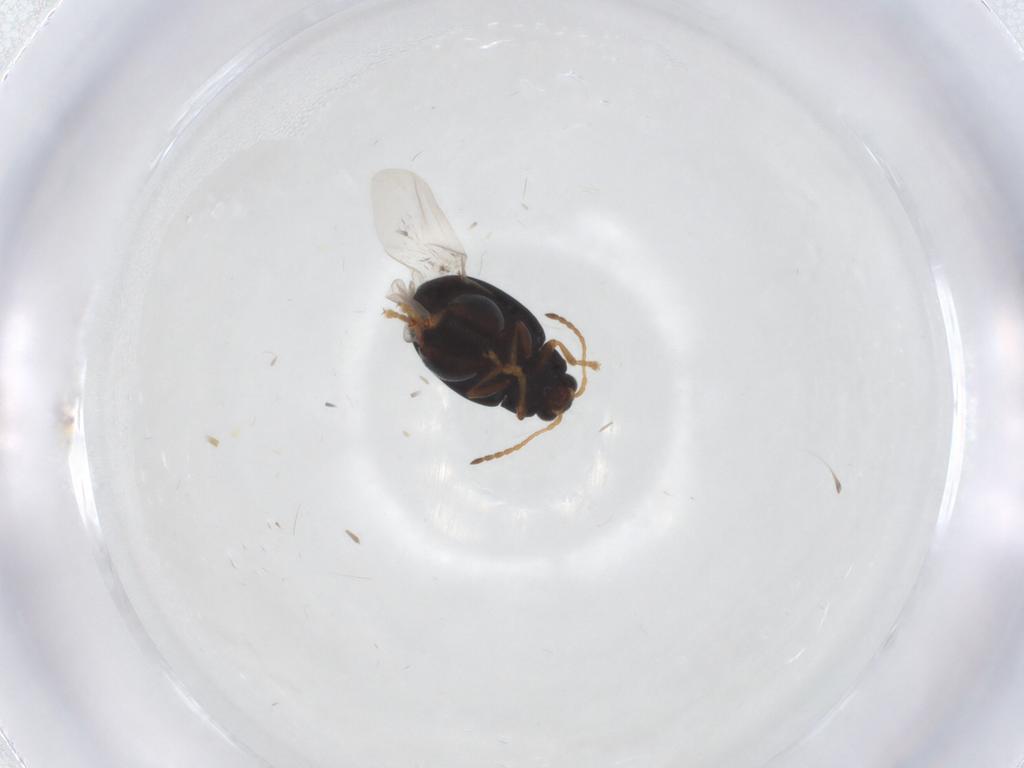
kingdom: Animalia
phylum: Arthropoda
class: Insecta
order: Coleoptera
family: Chrysomelidae
